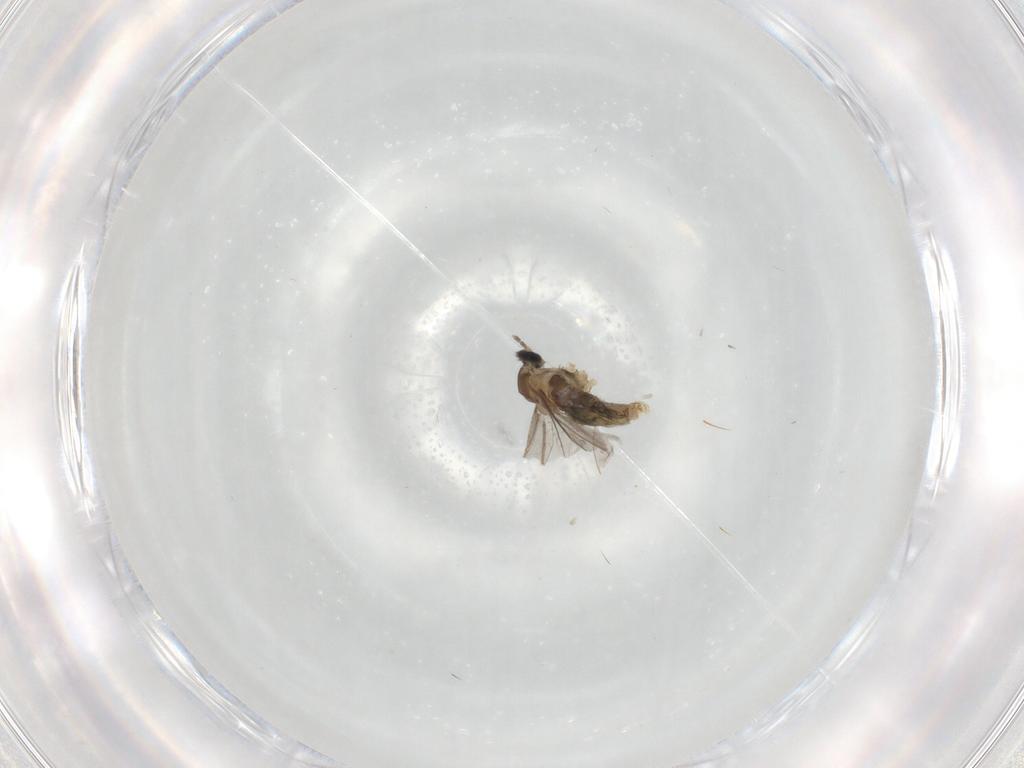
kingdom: Animalia
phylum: Arthropoda
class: Insecta
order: Diptera
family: Cecidomyiidae
